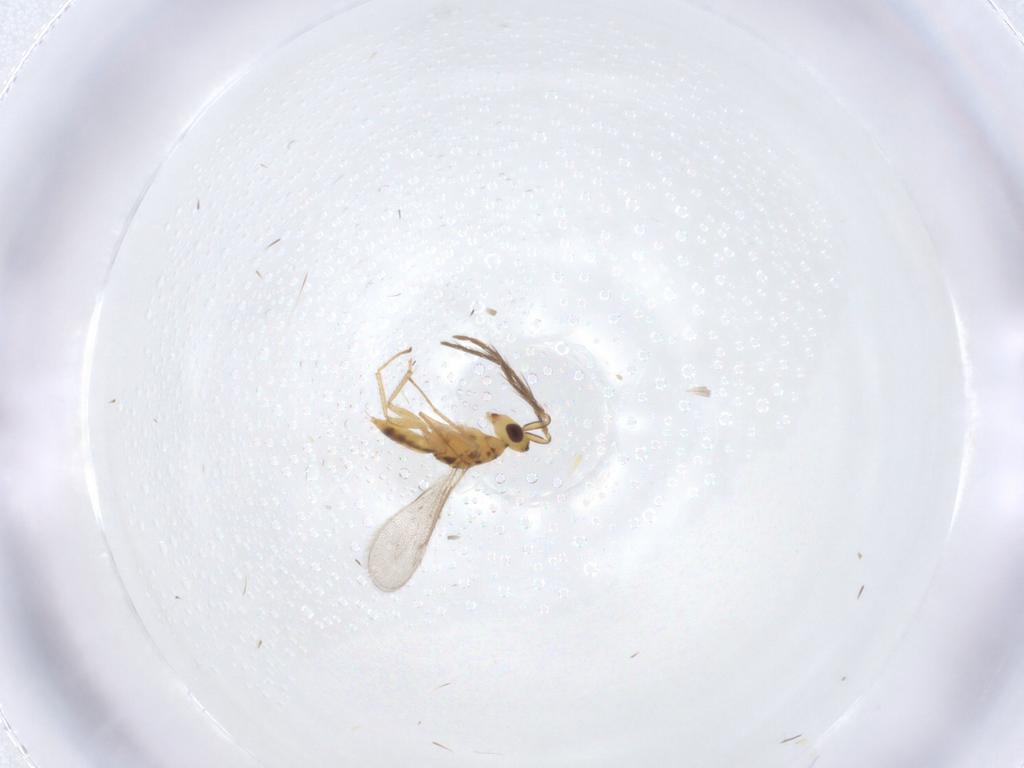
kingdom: Animalia
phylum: Arthropoda
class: Insecta
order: Hymenoptera
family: Eulophidae
